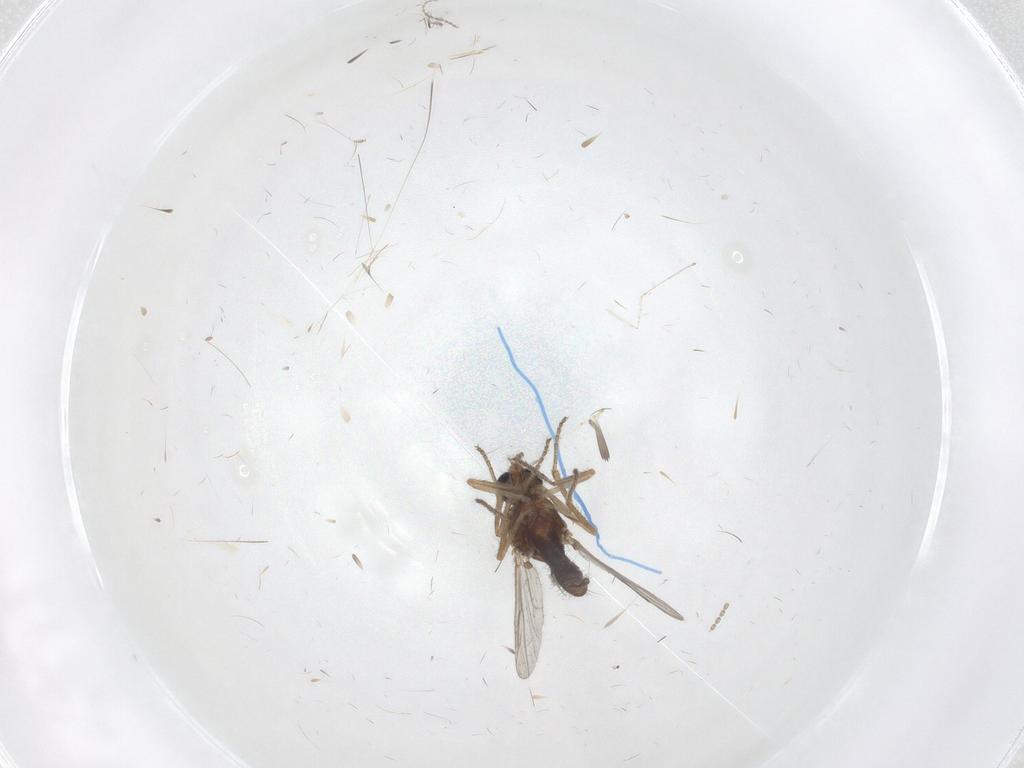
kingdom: Animalia
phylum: Arthropoda
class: Insecta
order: Diptera
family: Ceratopogonidae
